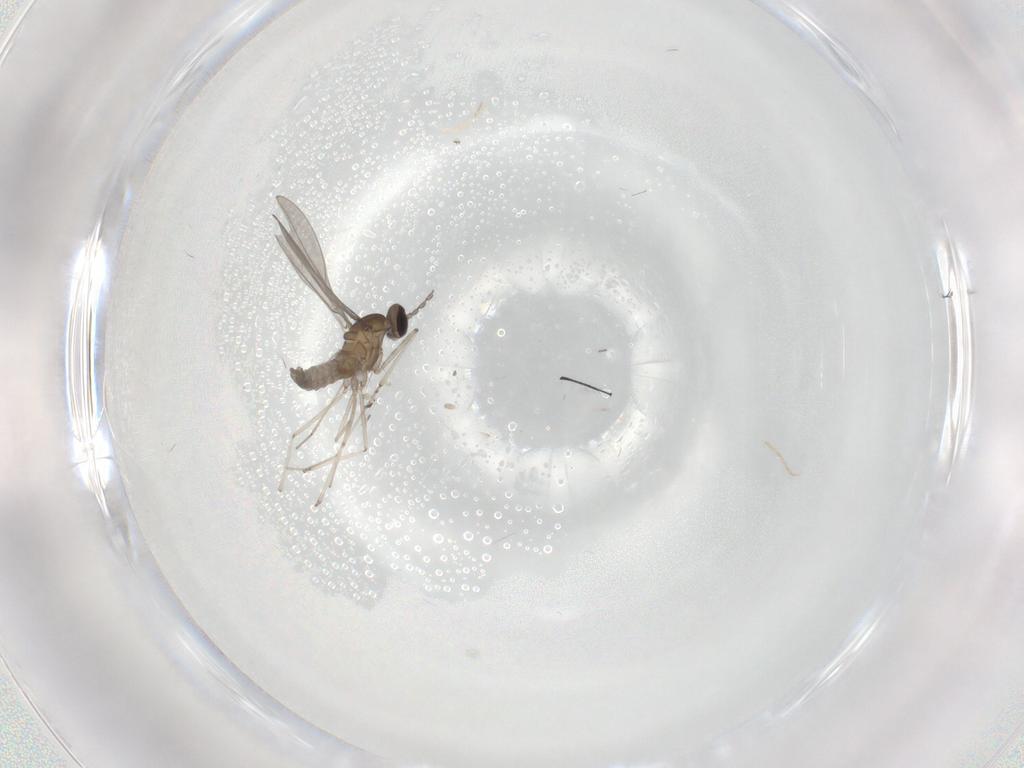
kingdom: Animalia
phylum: Arthropoda
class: Insecta
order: Diptera
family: Cecidomyiidae
